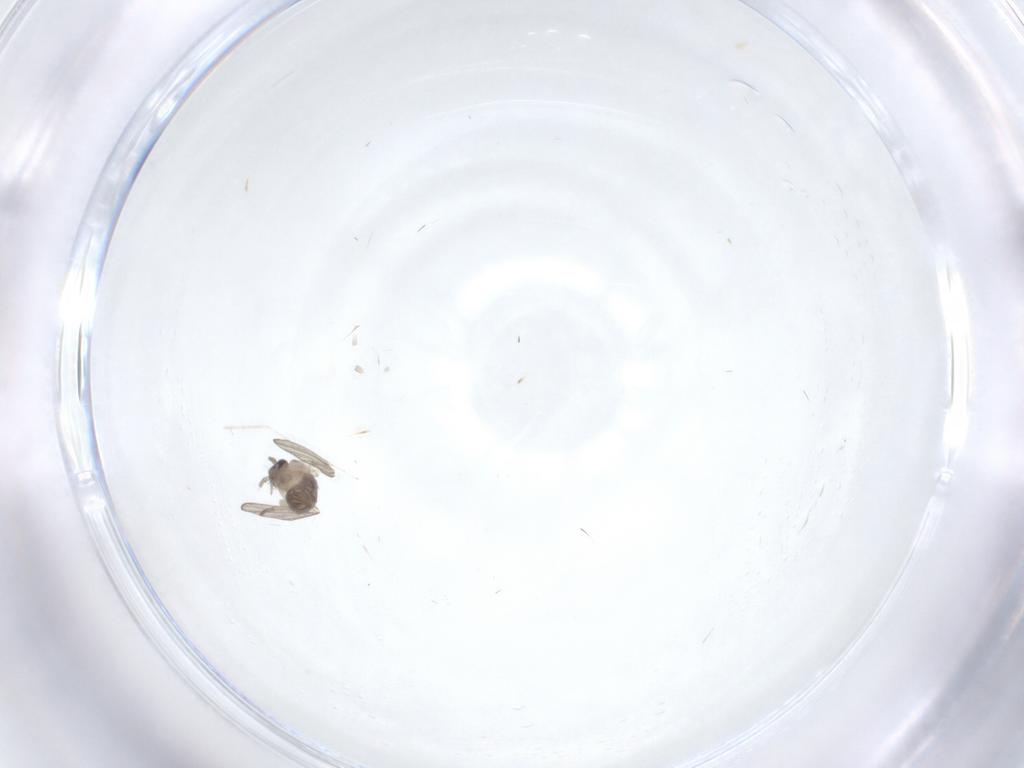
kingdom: Animalia
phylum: Arthropoda
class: Insecta
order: Diptera
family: Psychodidae
